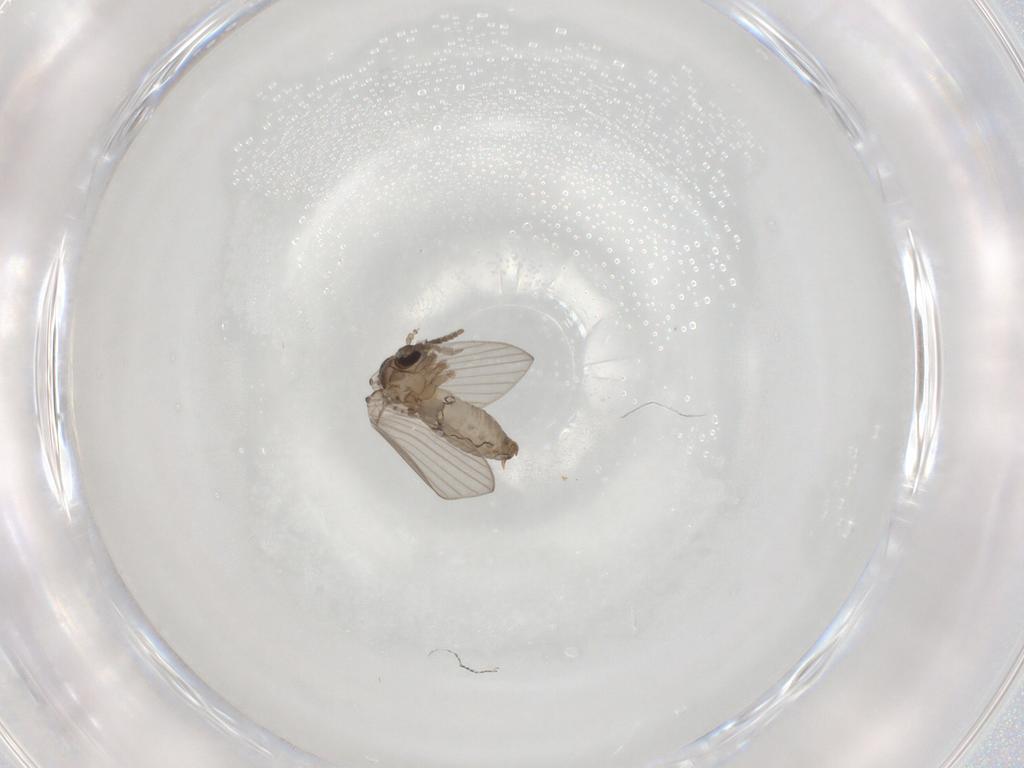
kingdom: Animalia
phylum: Arthropoda
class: Insecta
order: Diptera
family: Psychodidae
